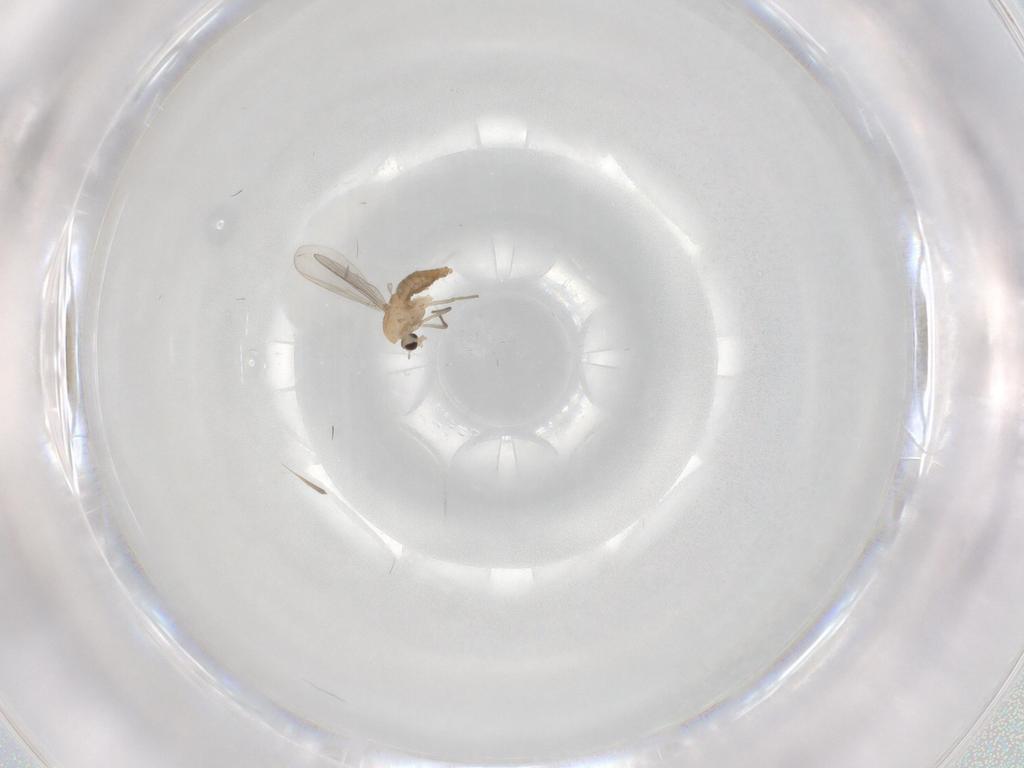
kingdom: Animalia
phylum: Arthropoda
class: Insecta
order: Diptera
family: Chironomidae
